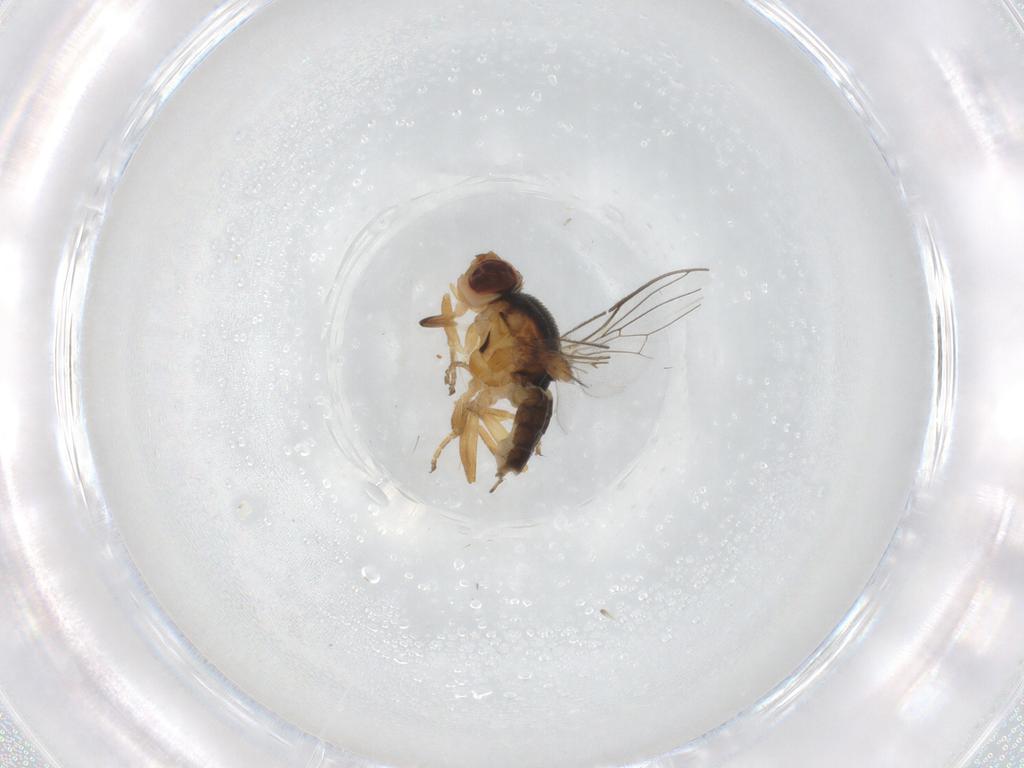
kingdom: Animalia
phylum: Arthropoda
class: Insecta
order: Diptera
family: Chloropidae
